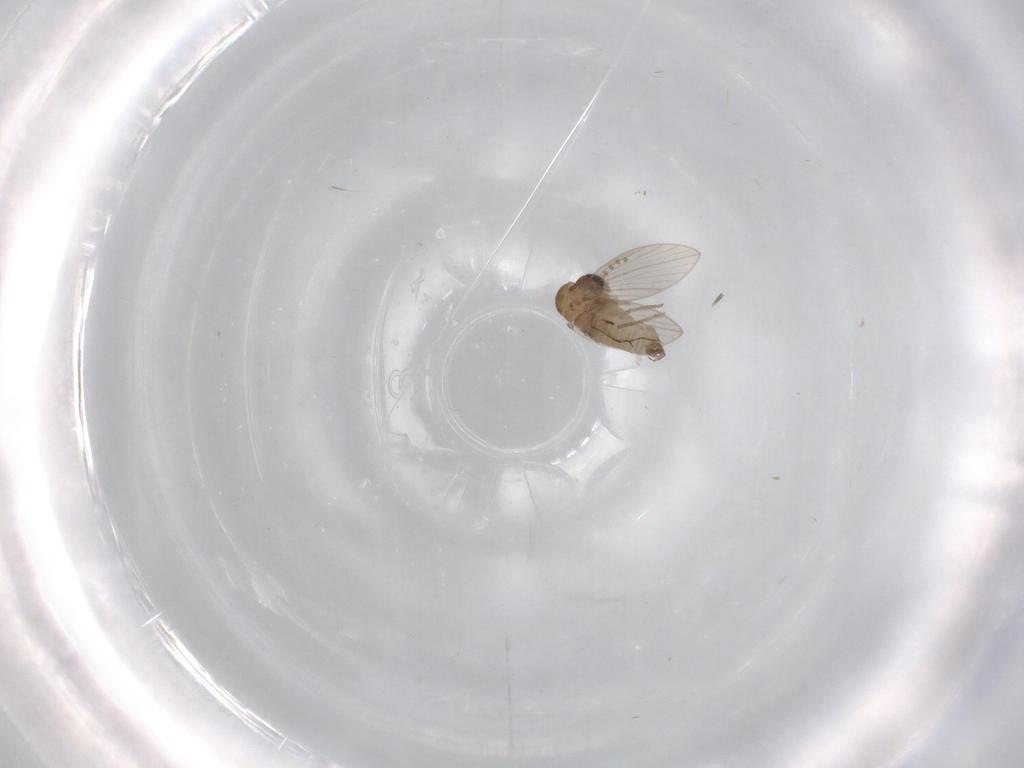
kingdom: Animalia
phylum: Arthropoda
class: Insecta
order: Diptera
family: Psychodidae
